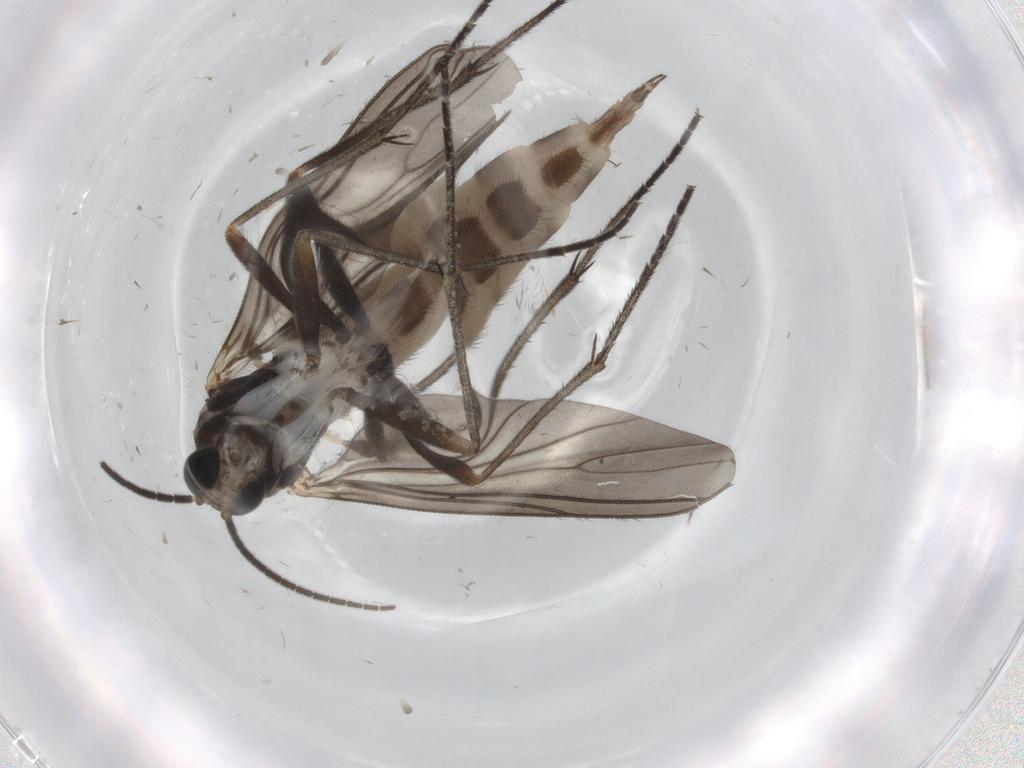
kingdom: Animalia
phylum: Arthropoda
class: Insecta
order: Diptera
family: Sciaridae
